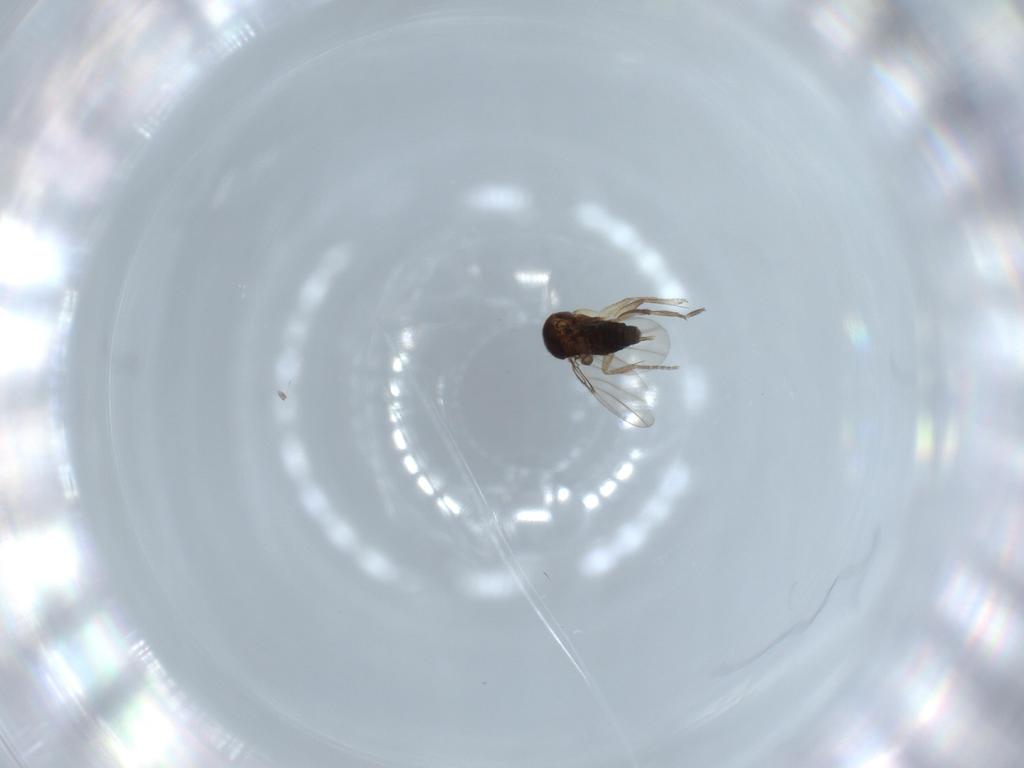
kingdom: Animalia
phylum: Arthropoda
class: Insecta
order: Diptera
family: Phoridae
